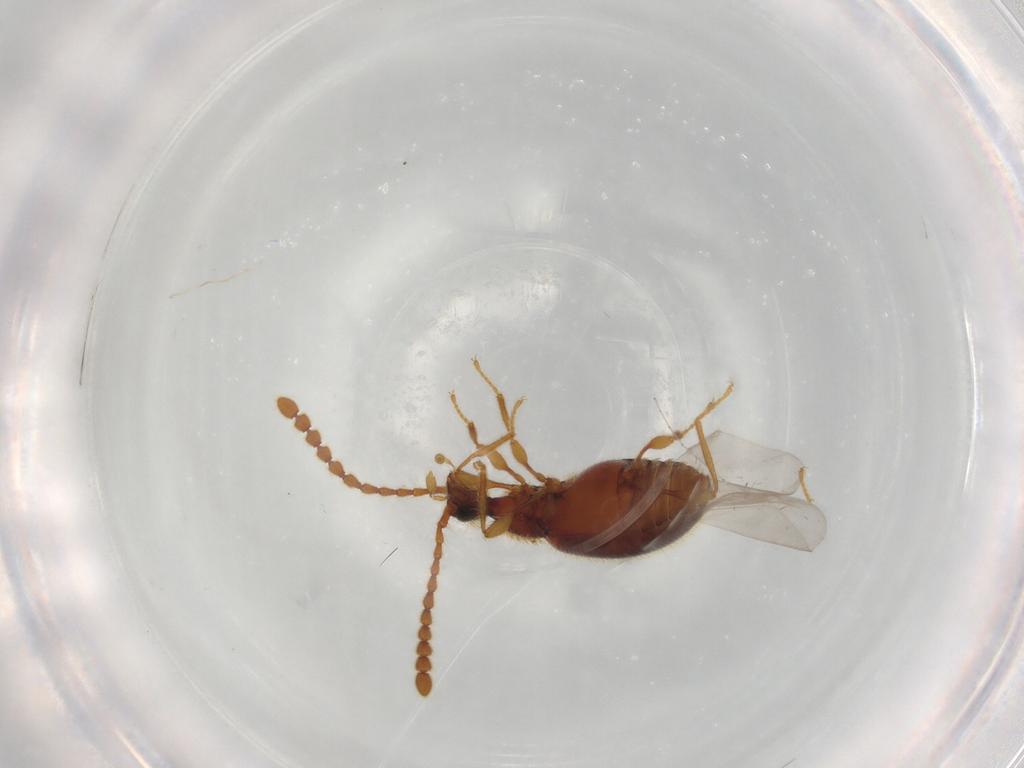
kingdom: Animalia
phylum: Arthropoda
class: Insecta
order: Coleoptera
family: Staphylinidae
